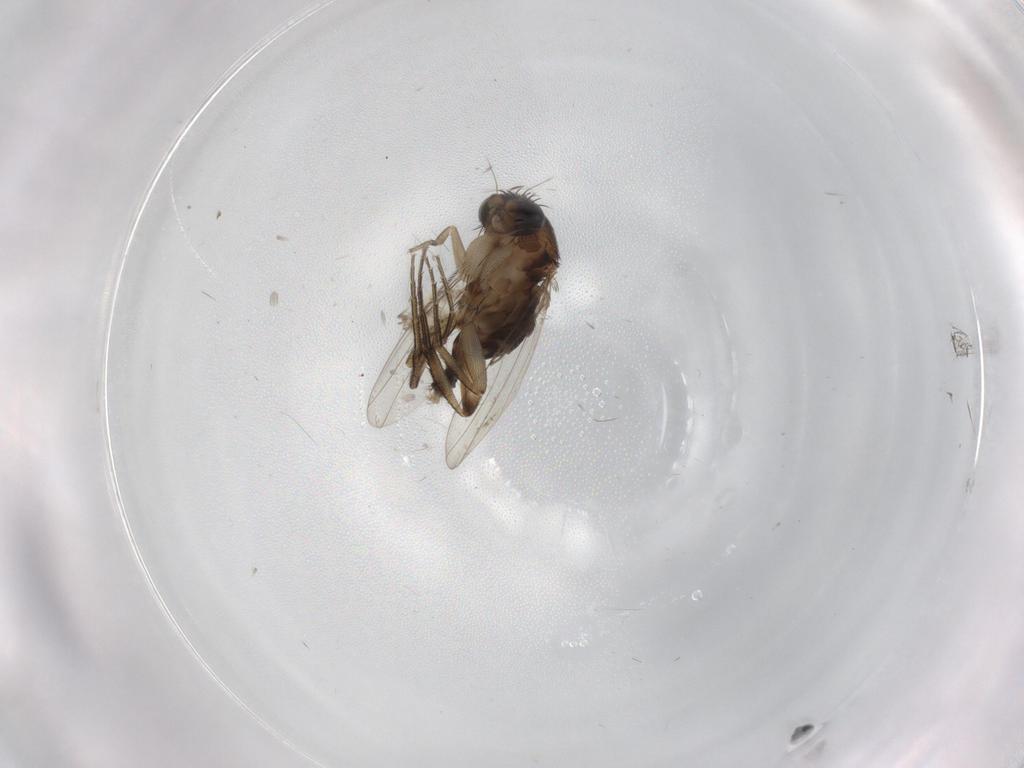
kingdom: Animalia
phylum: Arthropoda
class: Insecta
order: Diptera
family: Cecidomyiidae
